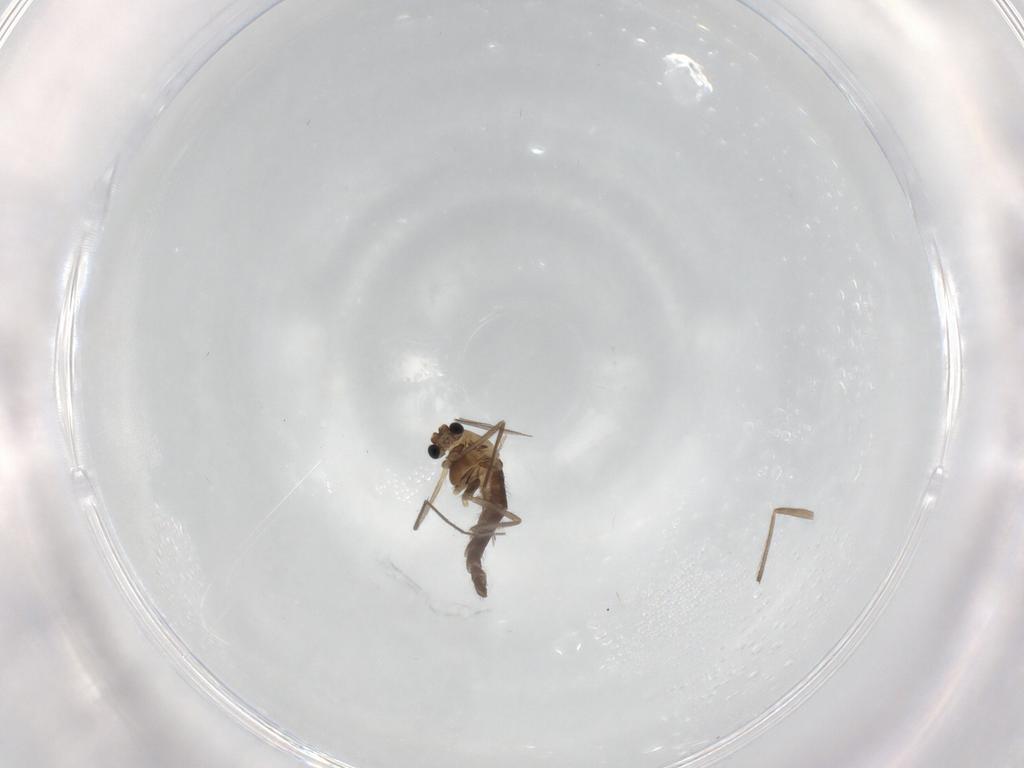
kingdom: Animalia
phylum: Arthropoda
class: Insecta
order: Diptera
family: Chironomidae
